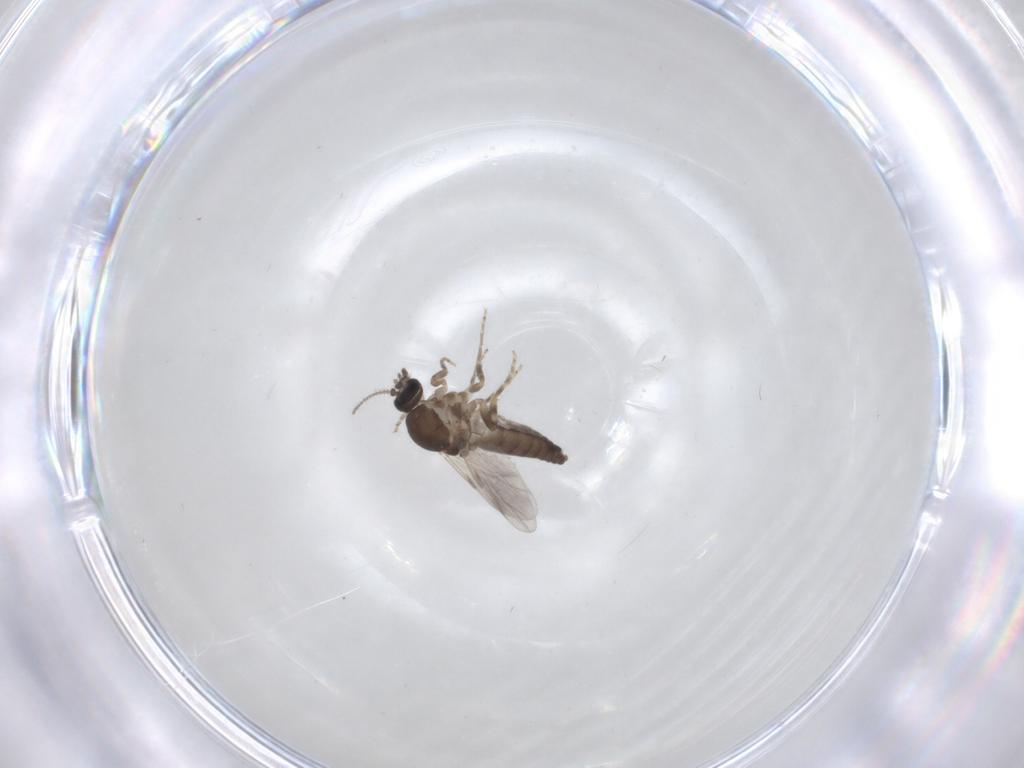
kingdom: Animalia
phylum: Arthropoda
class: Insecta
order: Diptera
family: Ceratopogonidae
